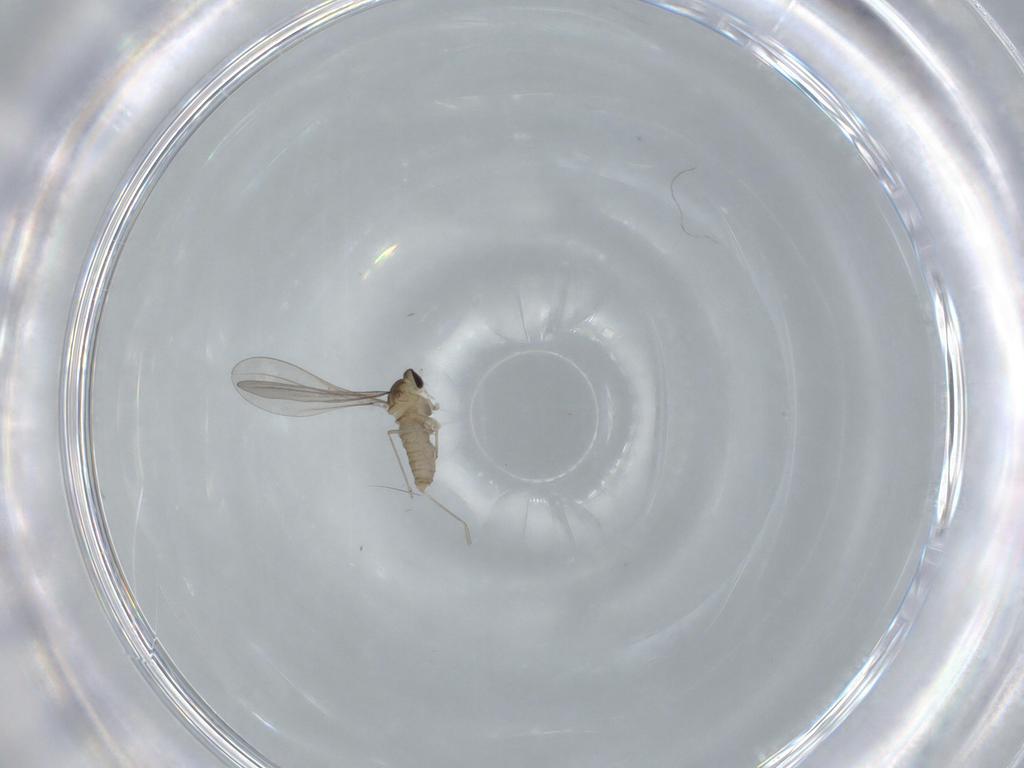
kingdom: Animalia
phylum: Arthropoda
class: Insecta
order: Diptera
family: Cecidomyiidae
